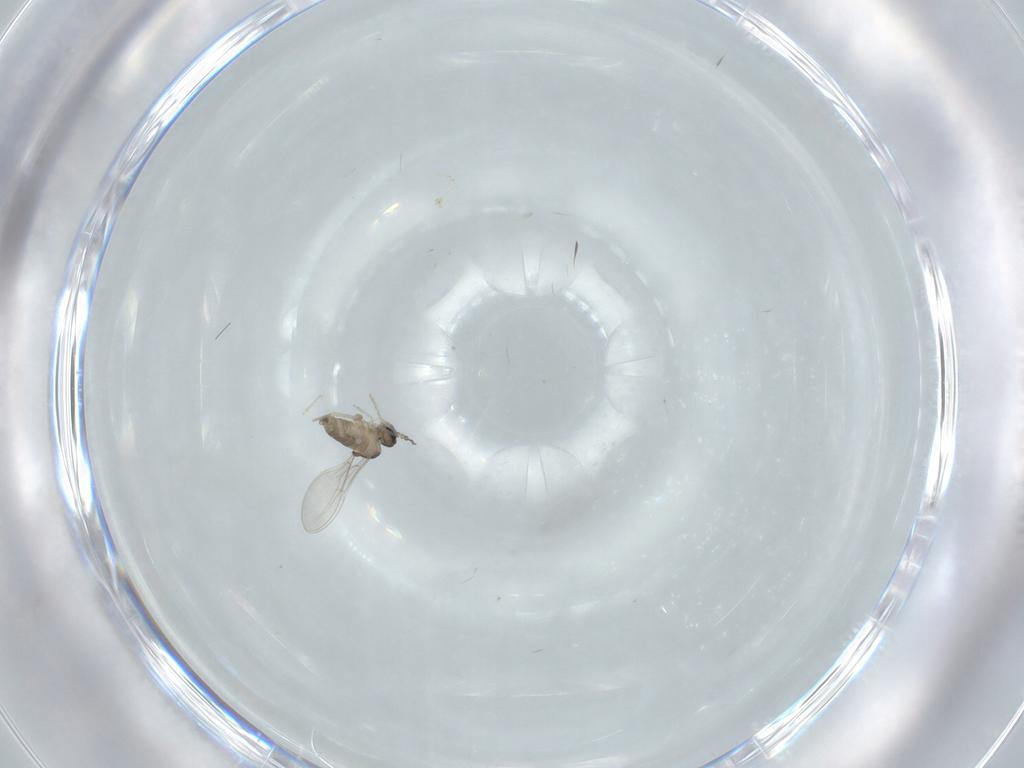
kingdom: Animalia
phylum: Arthropoda
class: Insecta
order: Diptera
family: Cecidomyiidae
